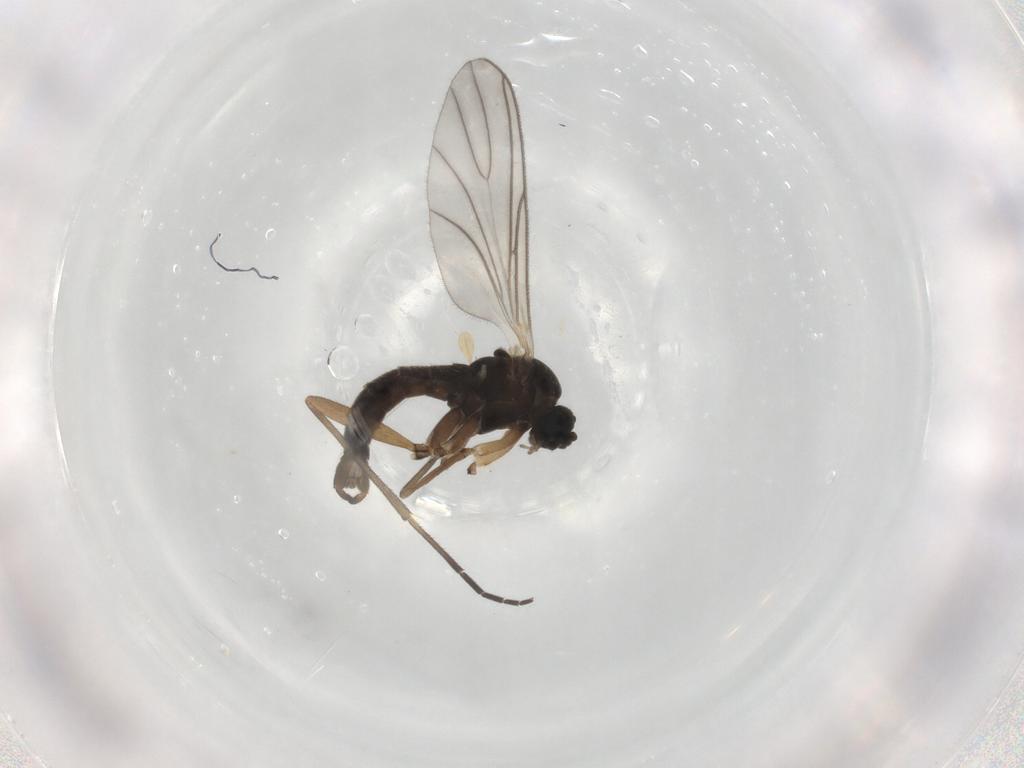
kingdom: Animalia
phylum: Arthropoda
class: Insecta
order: Diptera
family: Sciaridae
